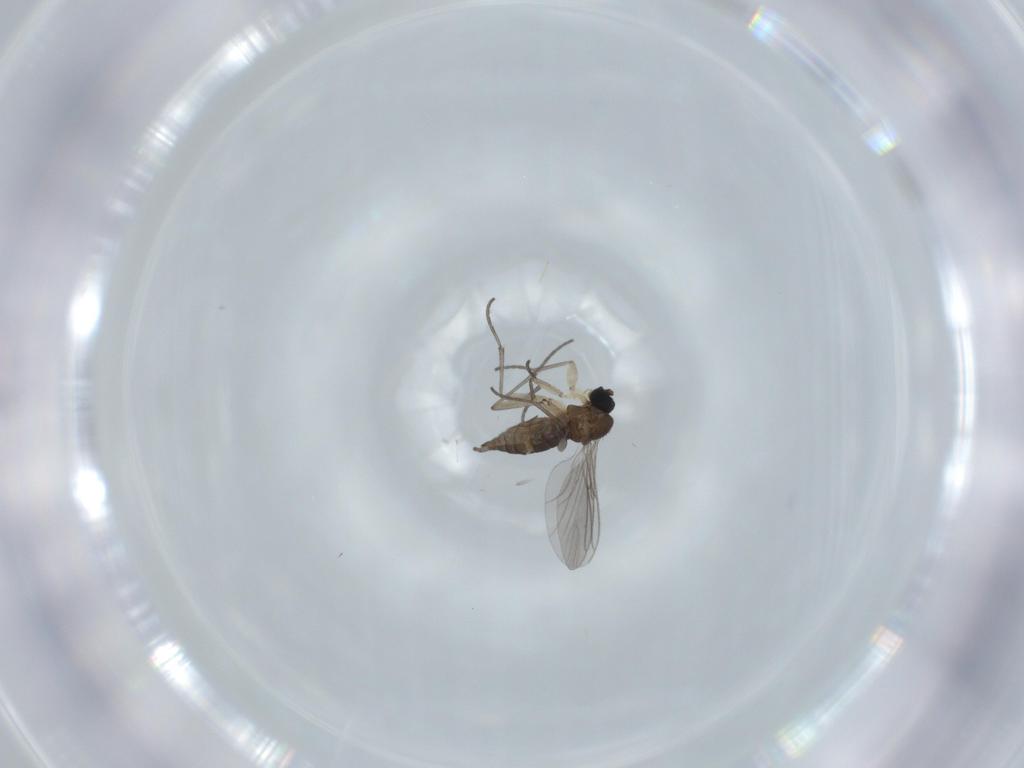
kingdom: Animalia
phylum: Arthropoda
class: Insecta
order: Diptera
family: Sciaridae
